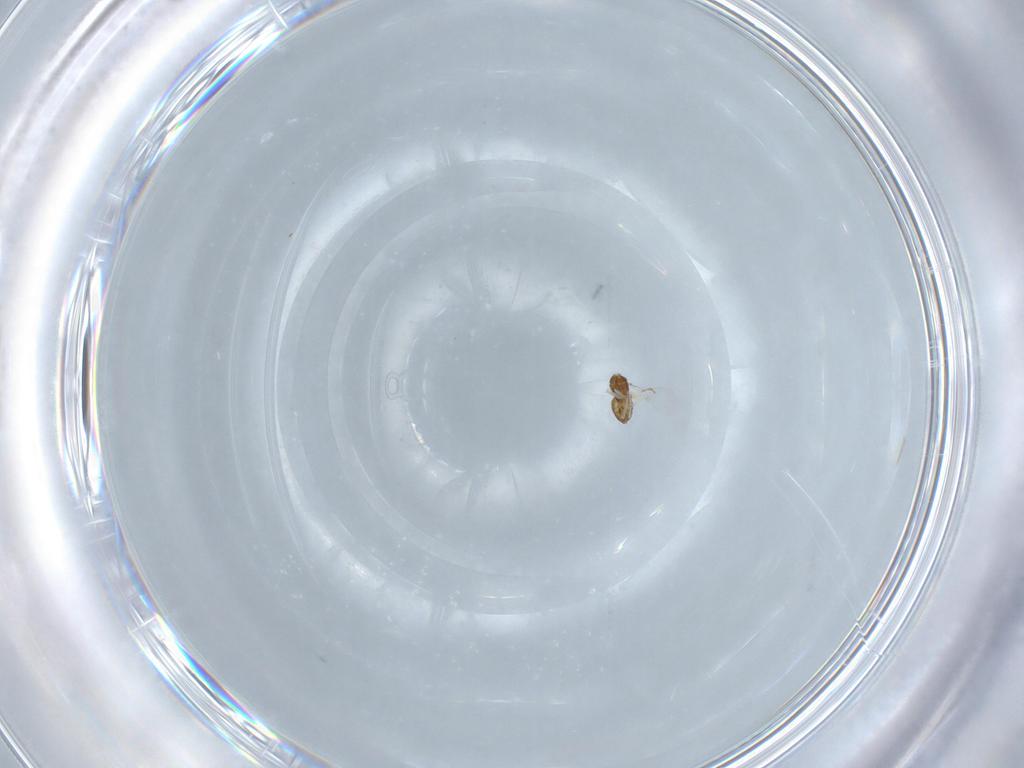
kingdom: Animalia
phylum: Arthropoda
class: Insecta
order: Hymenoptera
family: Trichogrammatidae
